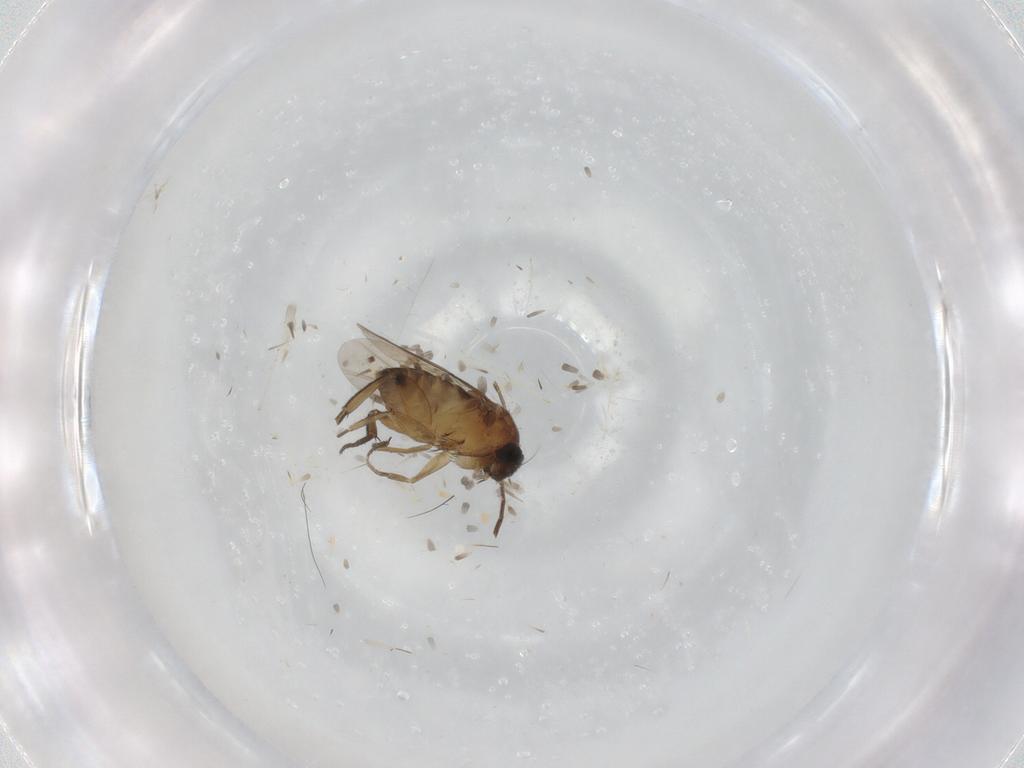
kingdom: Animalia
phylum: Arthropoda
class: Insecta
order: Diptera
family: Phoridae
